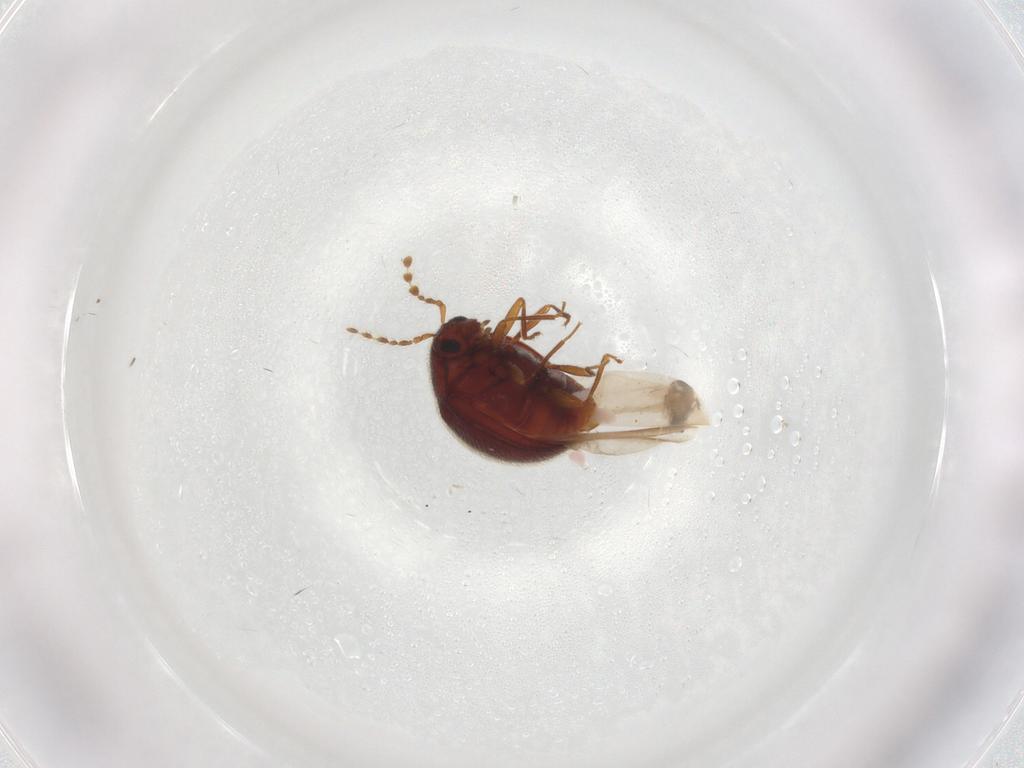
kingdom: Animalia
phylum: Arthropoda
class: Insecta
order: Coleoptera
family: Anamorphidae
